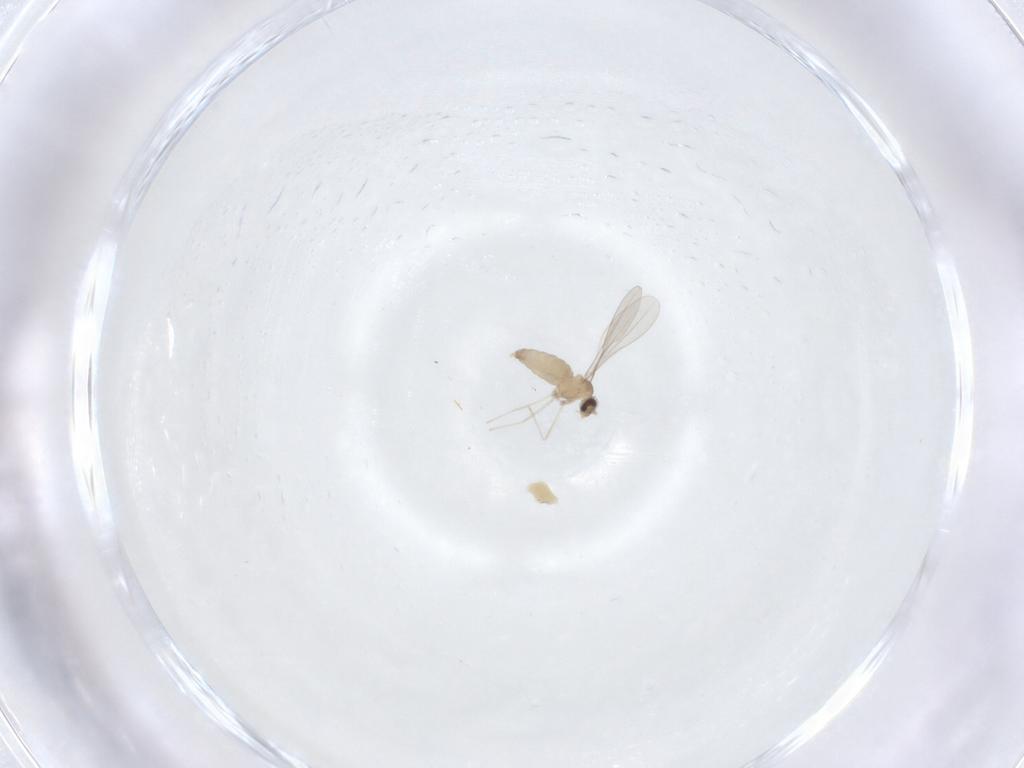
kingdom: Animalia
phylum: Arthropoda
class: Insecta
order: Diptera
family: Cecidomyiidae
